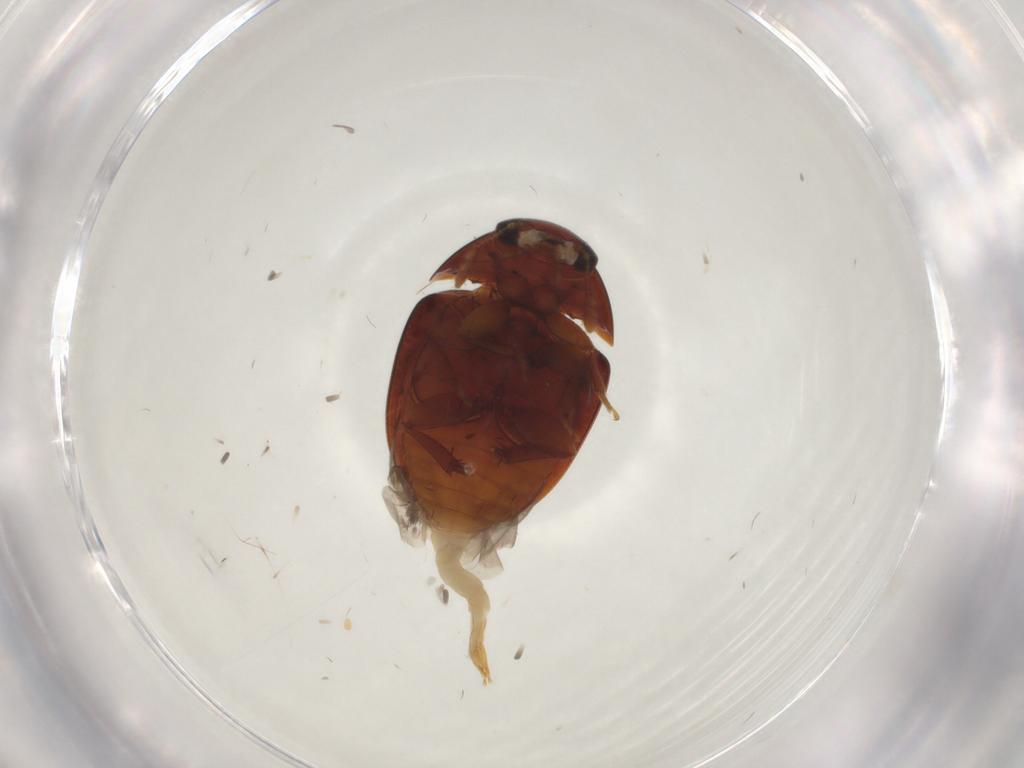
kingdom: Animalia
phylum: Arthropoda
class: Insecta
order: Coleoptera
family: Phalacridae
